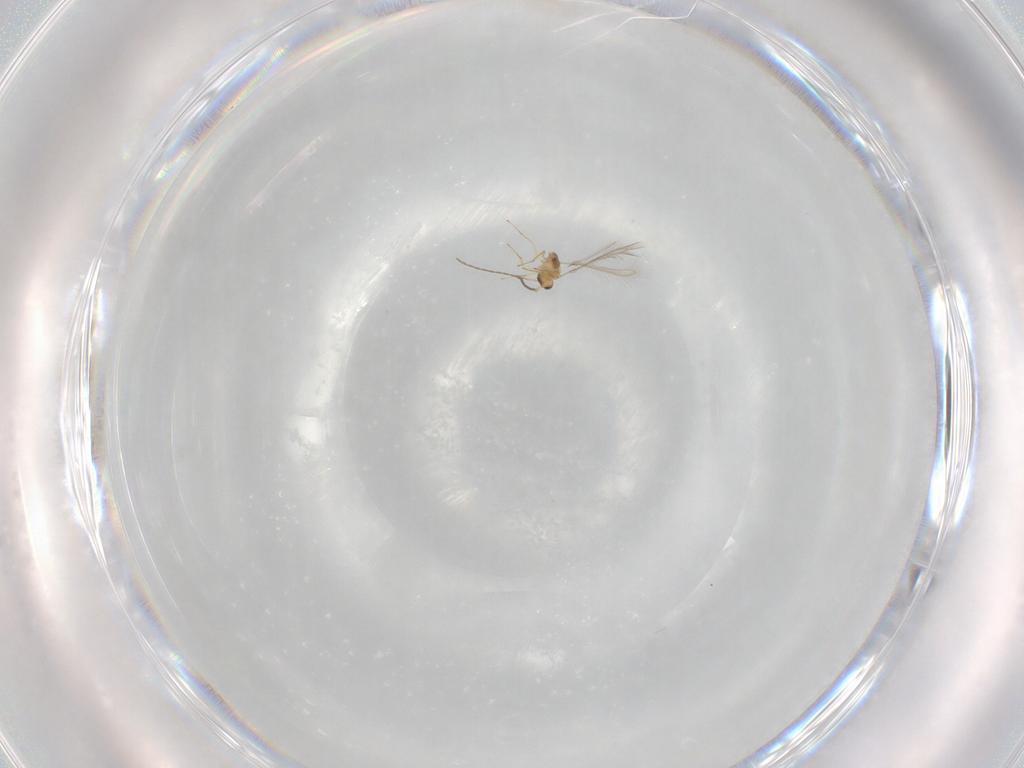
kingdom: Animalia
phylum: Arthropoda
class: Insecta
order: Hymenoptera
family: Mymaridae
